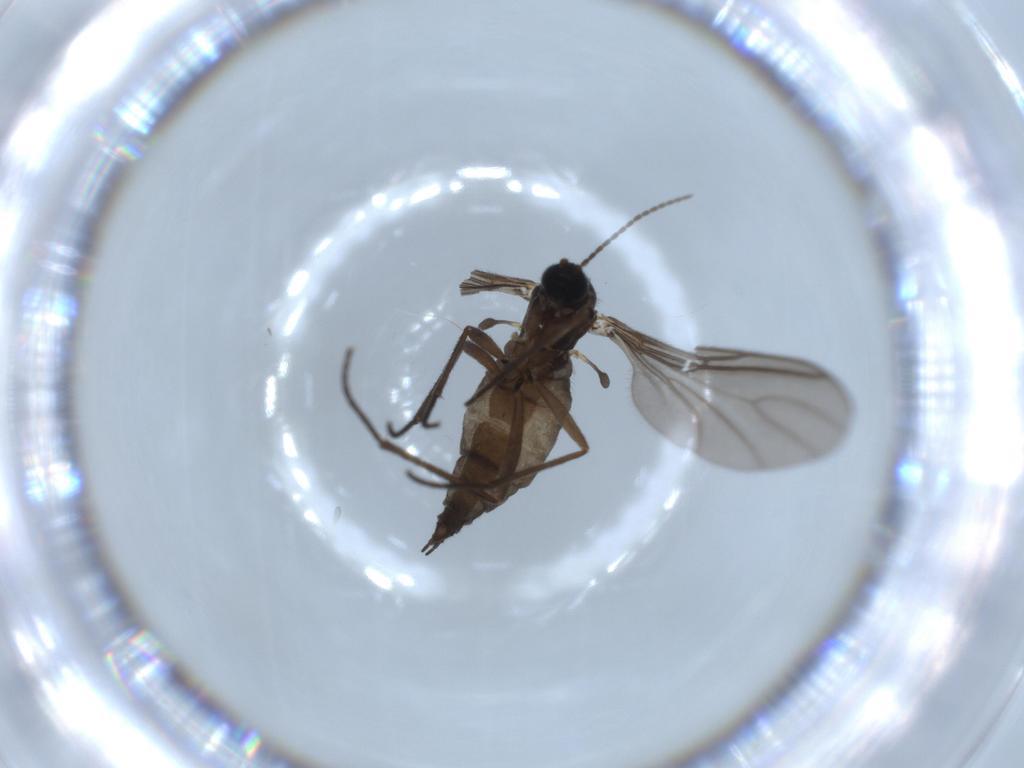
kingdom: Animalia
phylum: Arthropoda
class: Insecta
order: Diptera
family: Sciaridae
